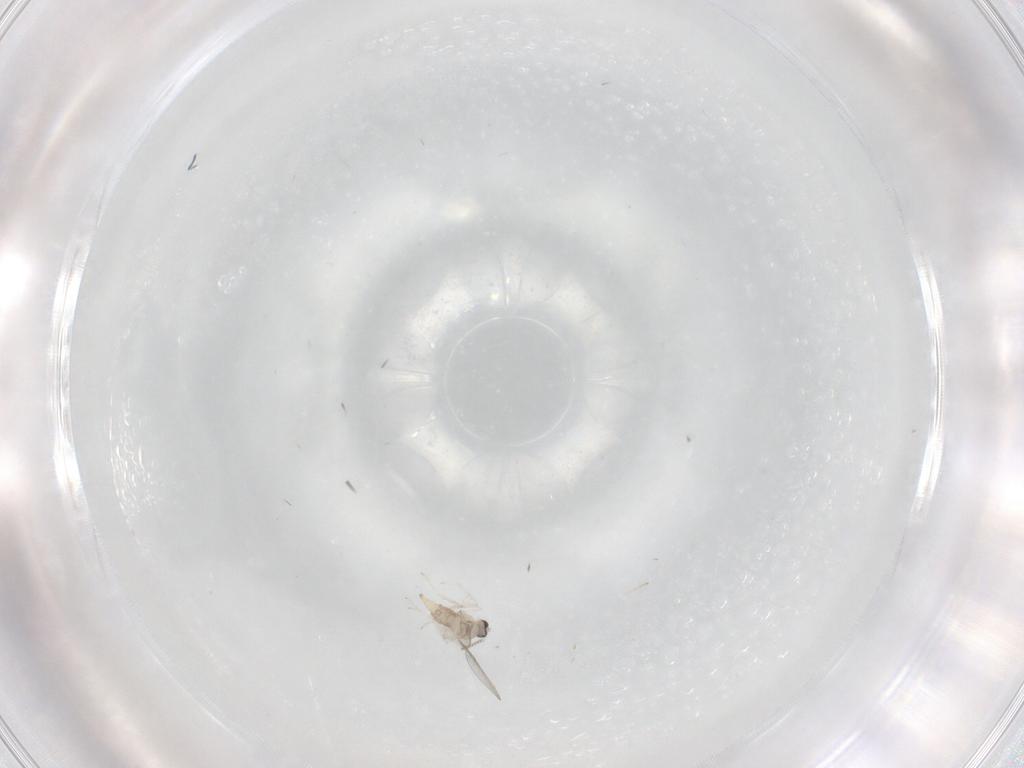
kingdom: Animalia
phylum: Arthropoda
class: Insecta
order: Diptera
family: Cecidomyiidae
